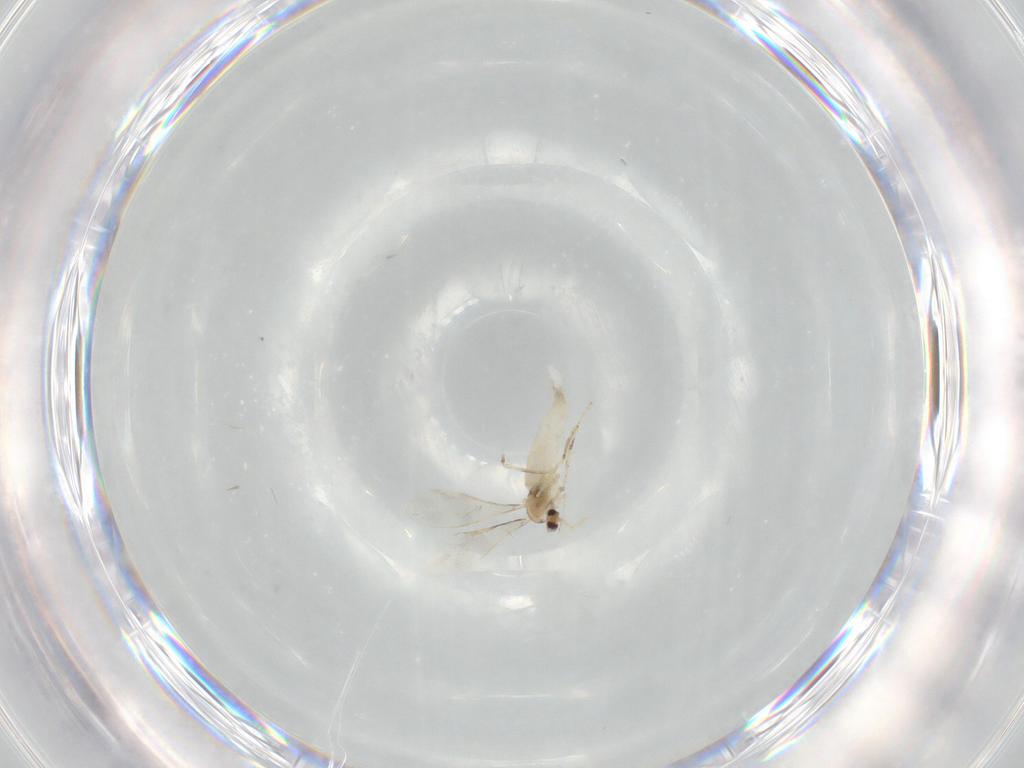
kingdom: Animalia
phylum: Arthropoda
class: Insecta
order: Diptera
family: Cecidomyiidae
